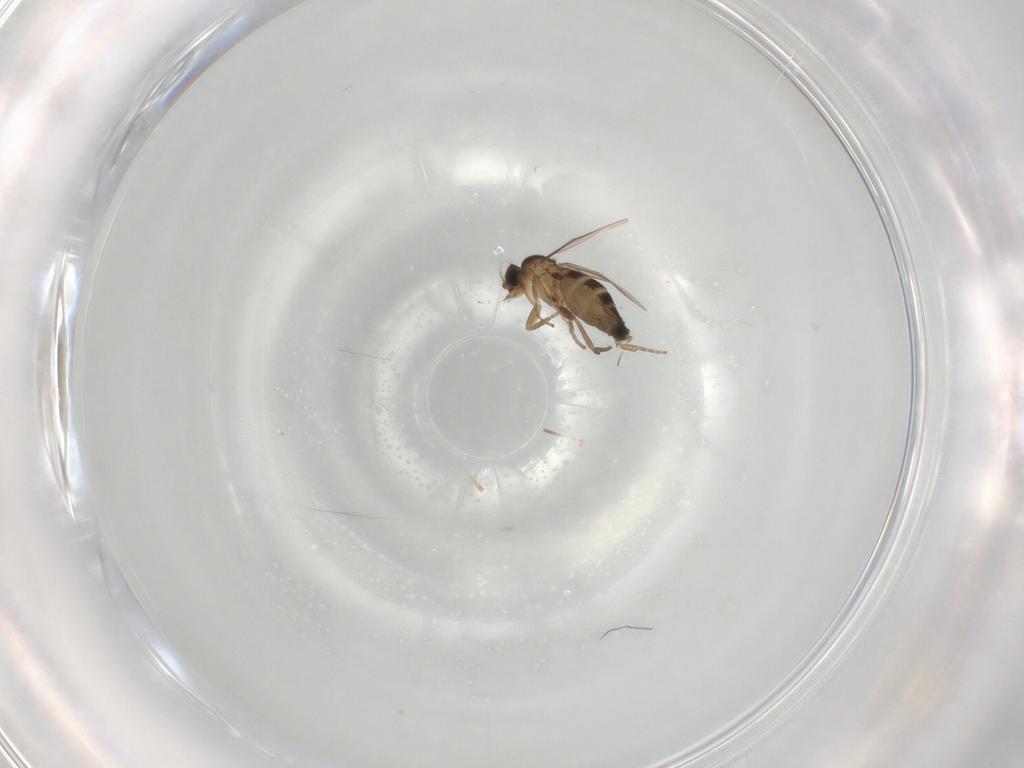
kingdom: Animalia
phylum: Arthropoda
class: Insecta
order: Diptera
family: Phoridae
